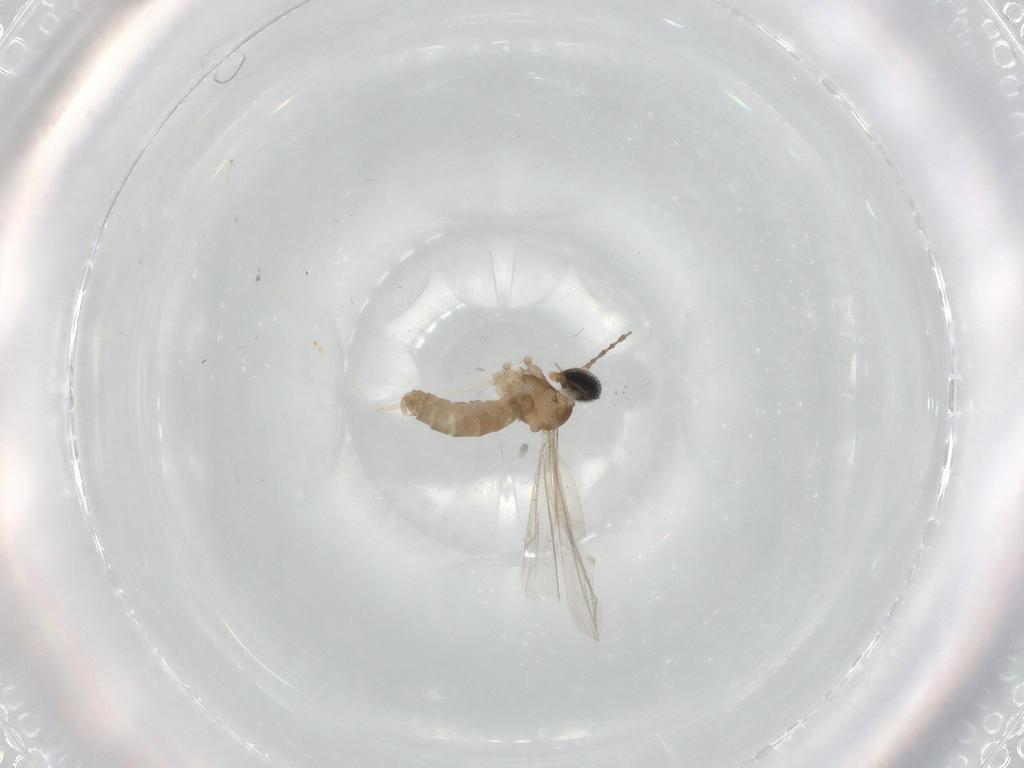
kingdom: Animalia
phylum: Arthropoda
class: Insecta
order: Diptera
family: Cecidomyiidae
